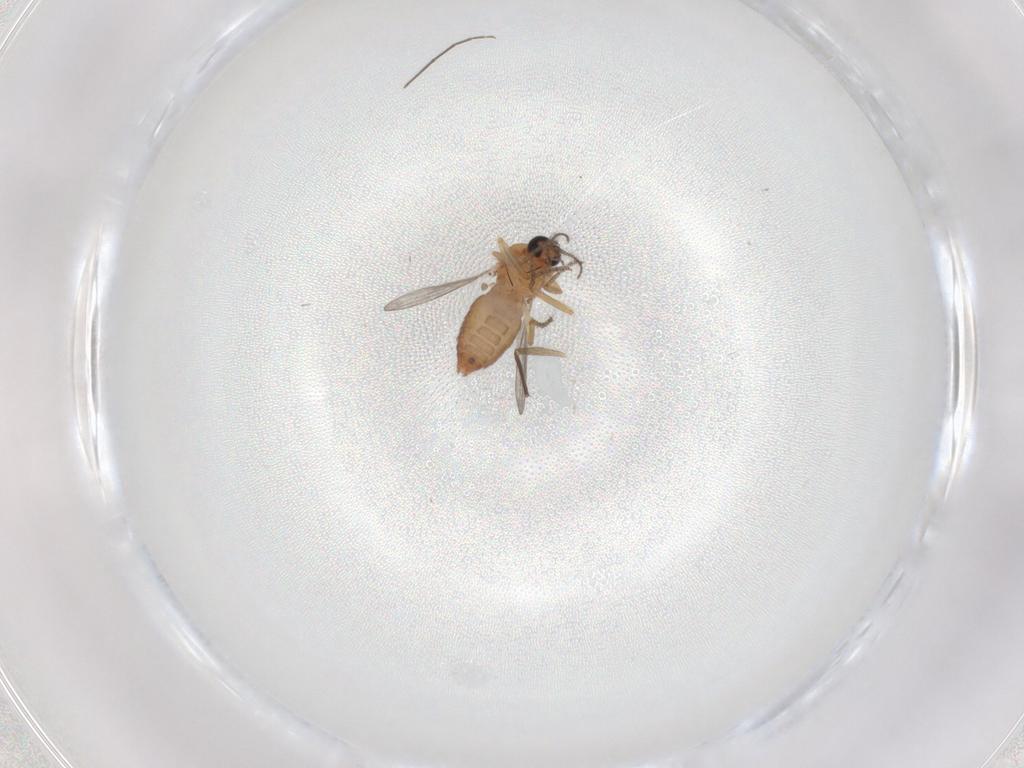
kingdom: Animalia
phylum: Arthropoda
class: Insecta
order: Diptera
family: Ceratopogonidae
